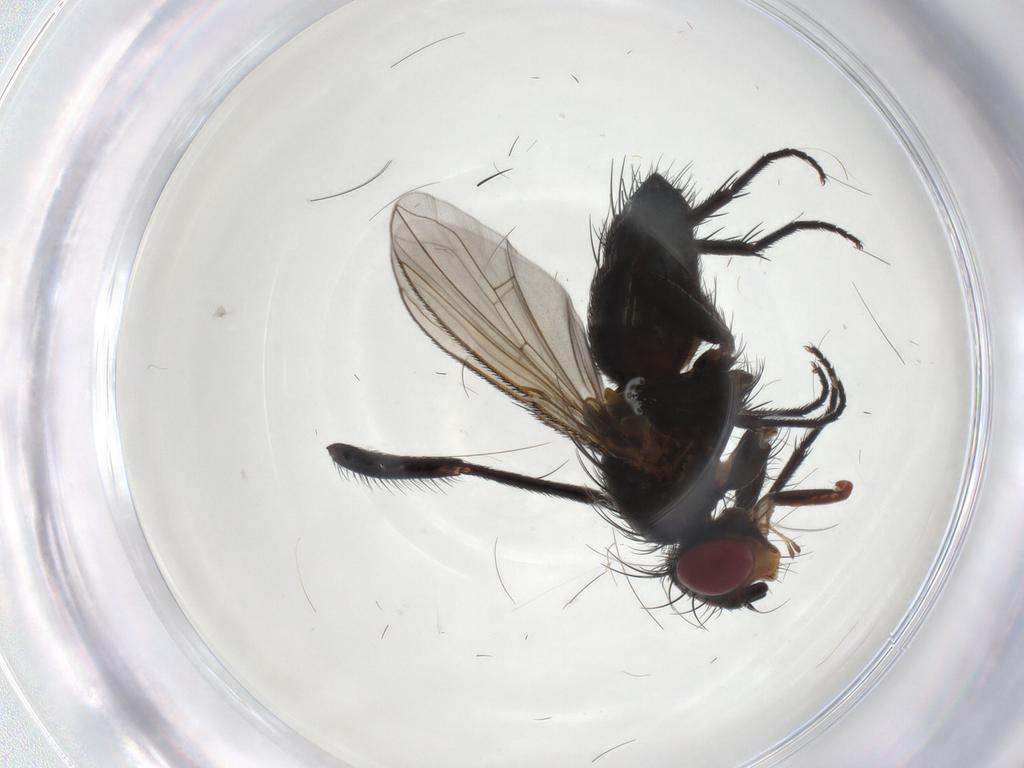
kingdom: Animalia
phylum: Arthropoda
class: Insecta
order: Diptera
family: Calliphoridae
